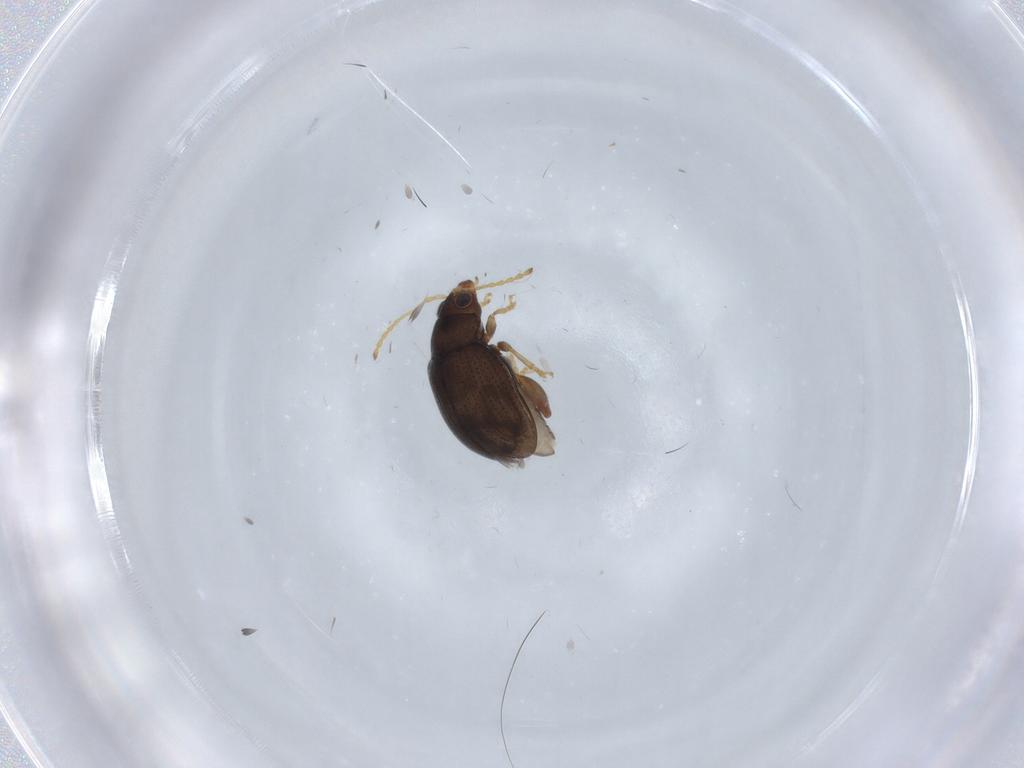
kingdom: Animalia
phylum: Arthropoda
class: Insecta
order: Coleoptera
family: Chrysomelidae
